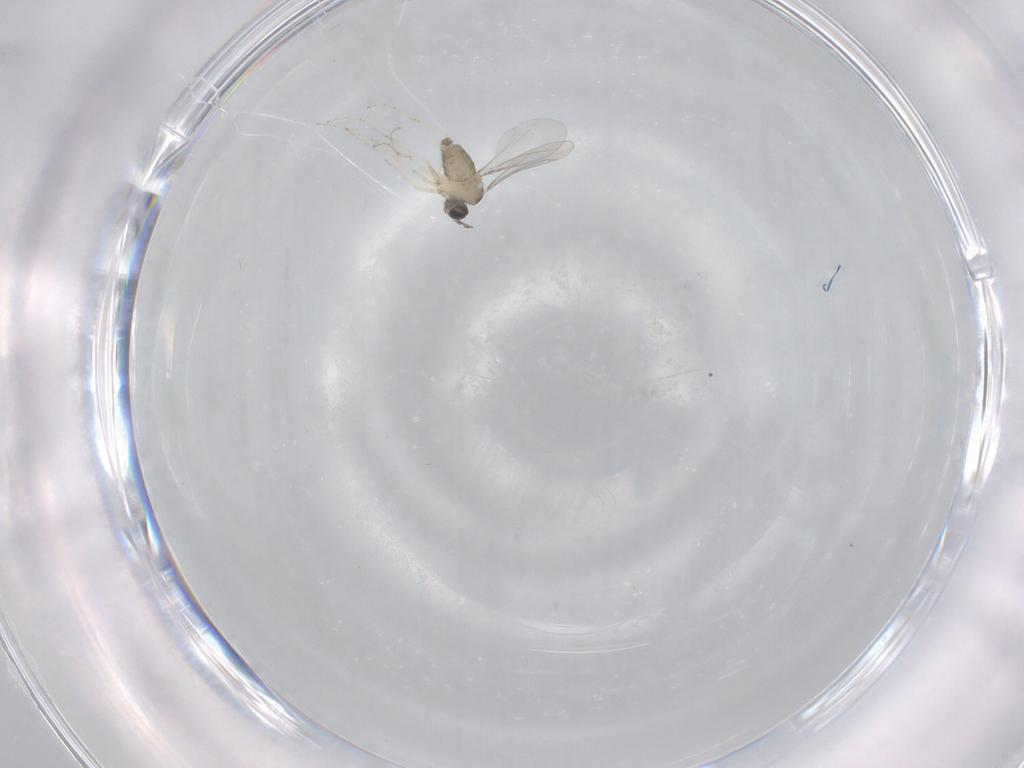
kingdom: Animalia
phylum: Arthropoda
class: Insecta
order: Diptera
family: Cecidomyiidae
